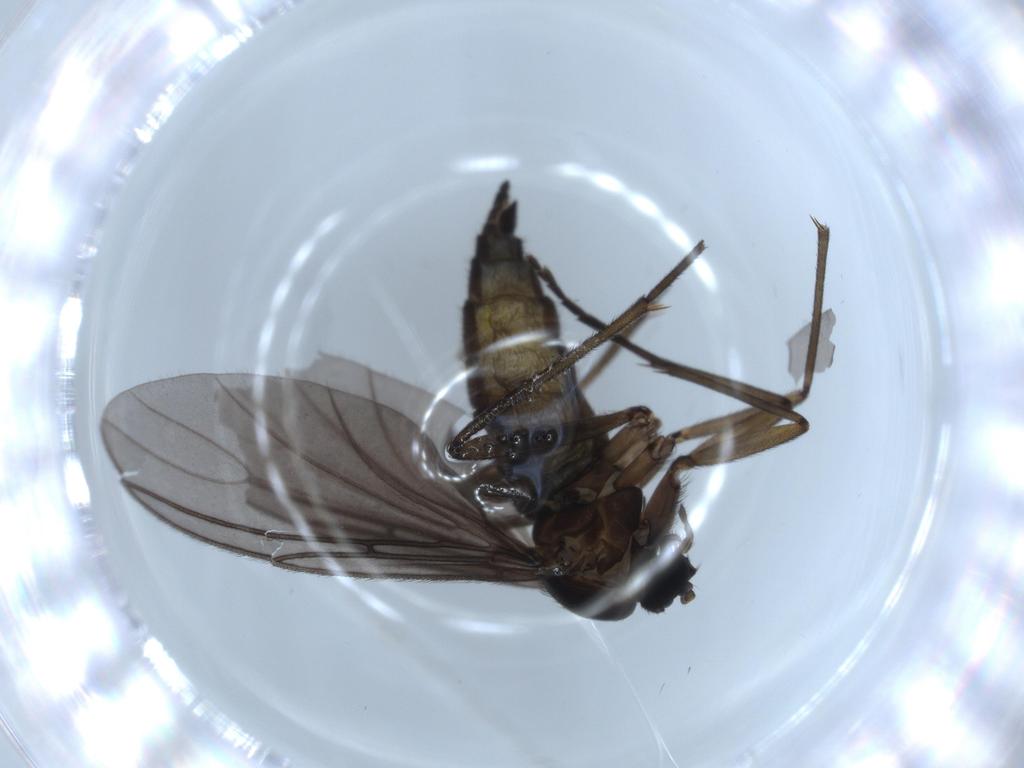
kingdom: Animalia
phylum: Arthropoda
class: Insecta
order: Diptera
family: Sciaridae
